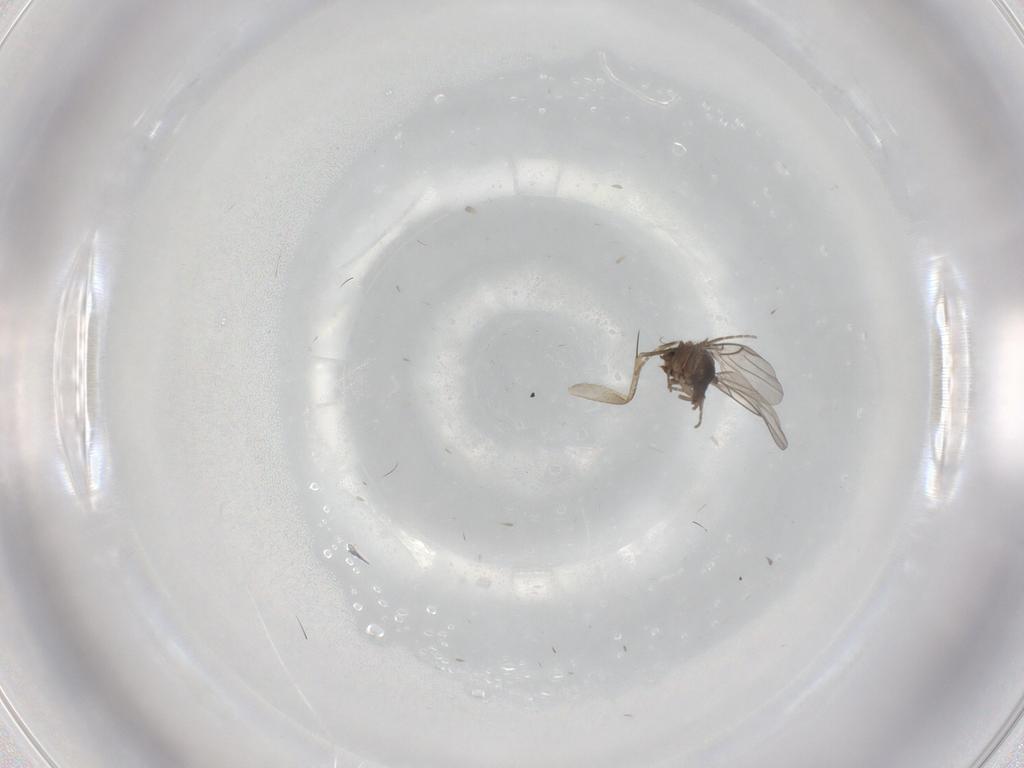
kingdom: Animalia
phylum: Arthropoda
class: Insecta
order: Diptera
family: Phoridae
